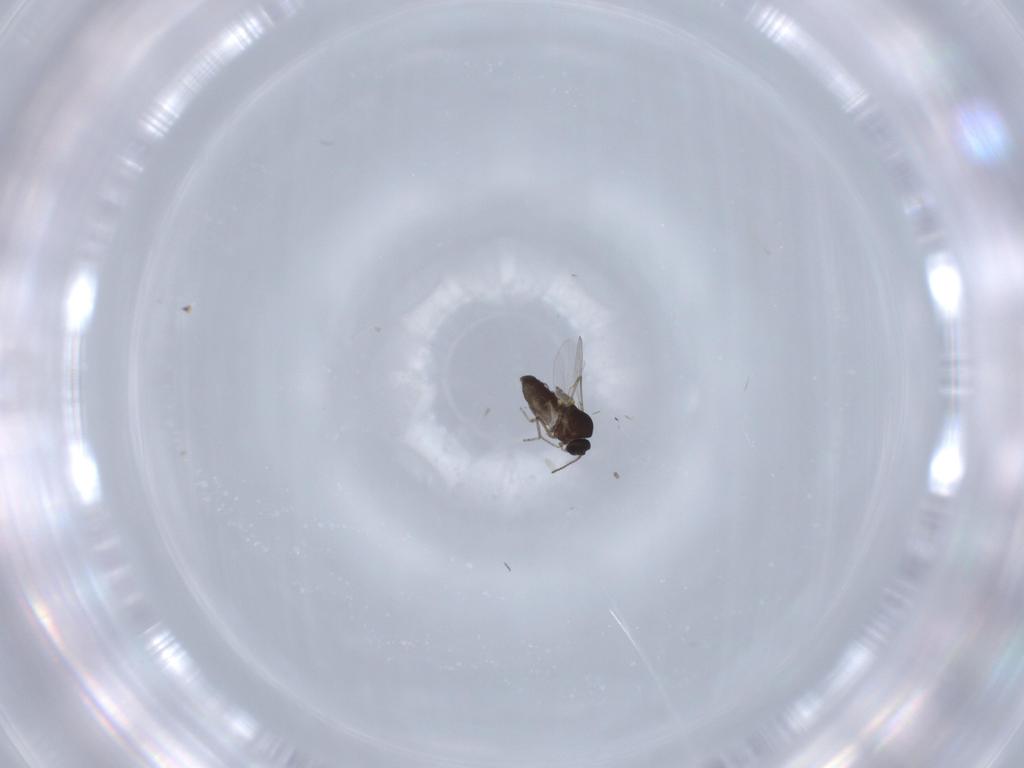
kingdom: Animalia
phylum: Arthropoda
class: Insecta
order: Diptera
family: Ceratopogonidae
